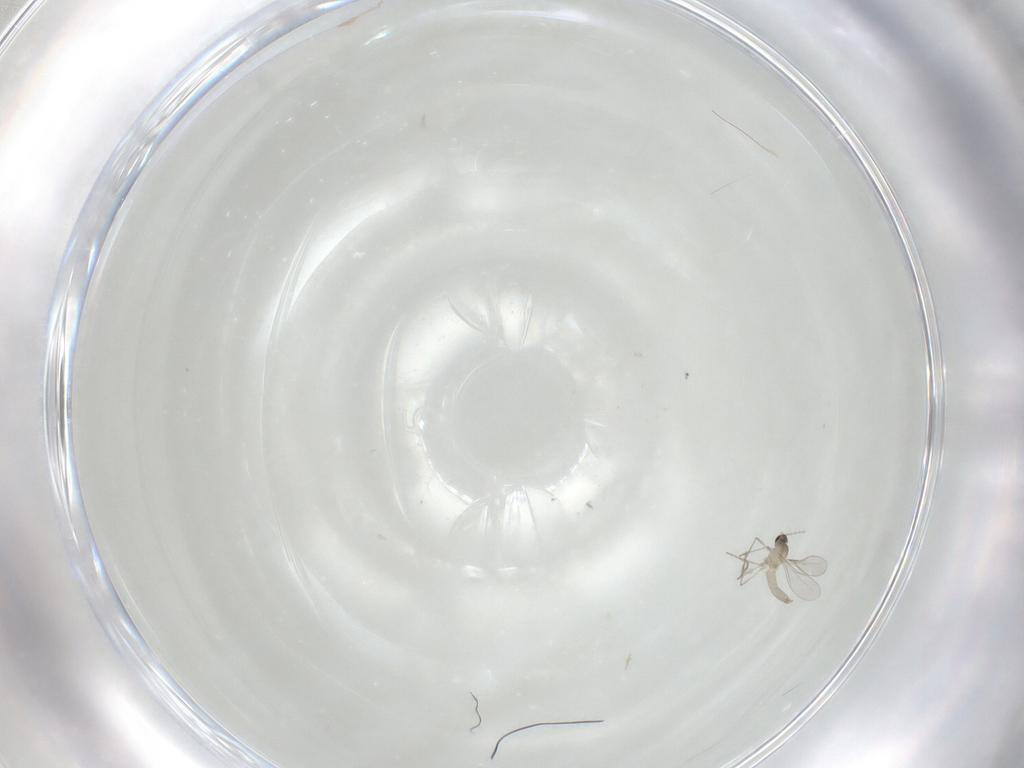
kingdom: Animalia
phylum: Arthropoda
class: Insecta
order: Diptera
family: Cecidomyiidae
